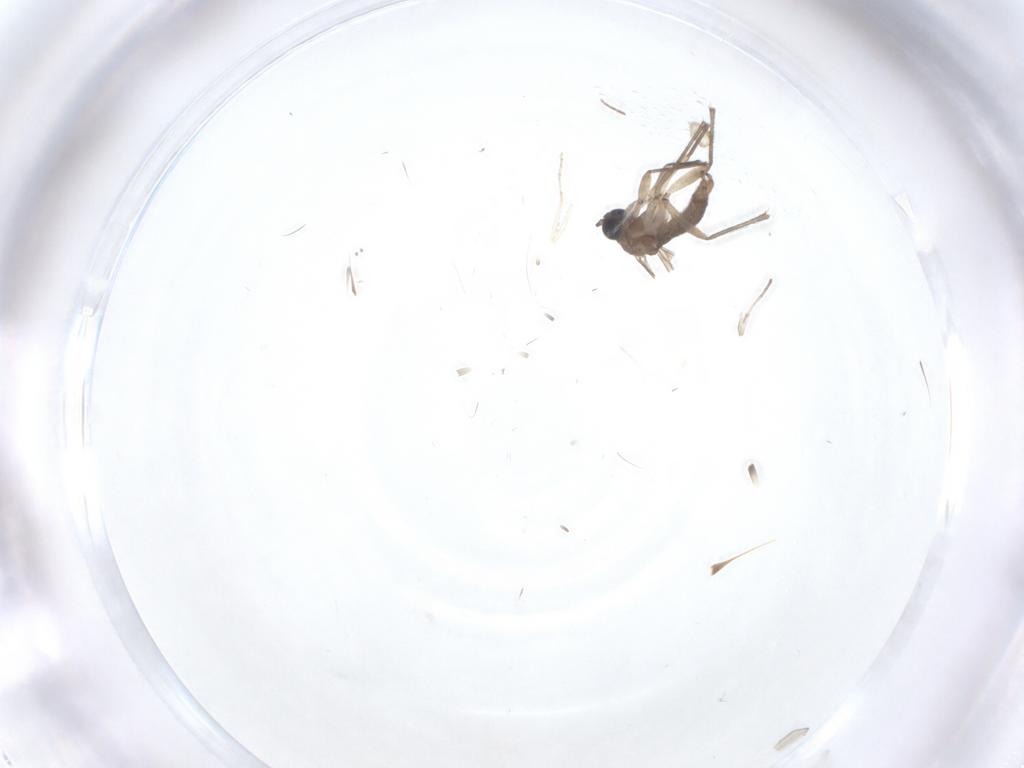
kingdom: Animalia
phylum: Arthropoda
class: Insecta
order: Diptera
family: Sciaridae
